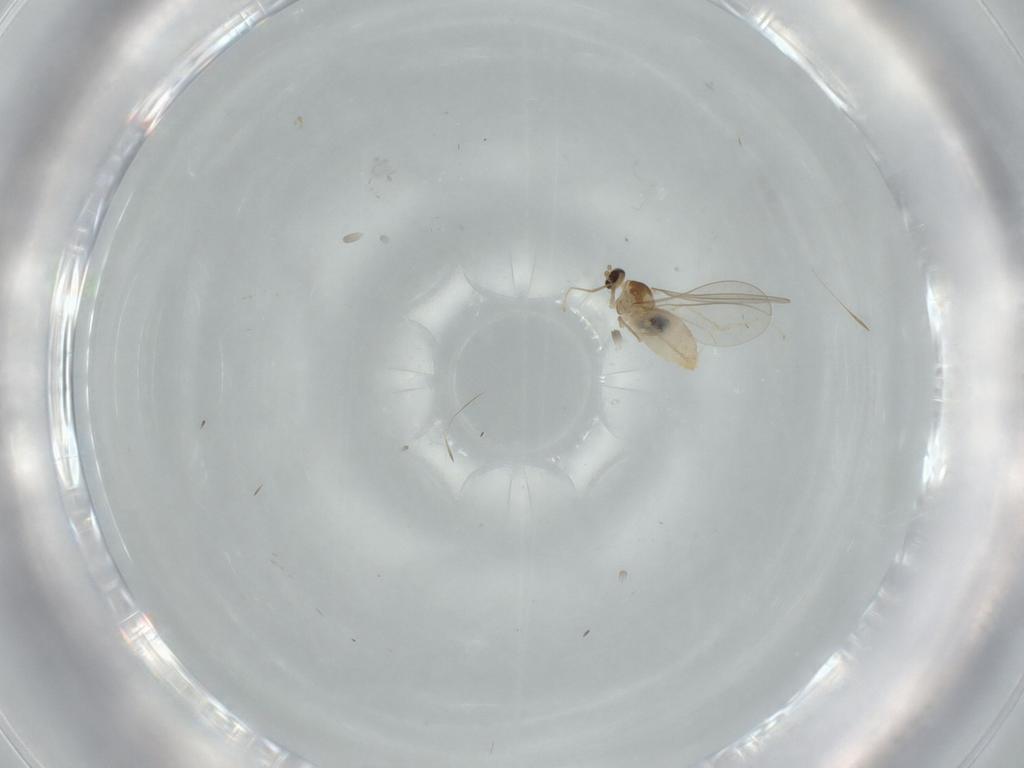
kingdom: Animalia
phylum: Arthropoda
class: Insecta
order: Diptera
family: Cecidomyiidae
